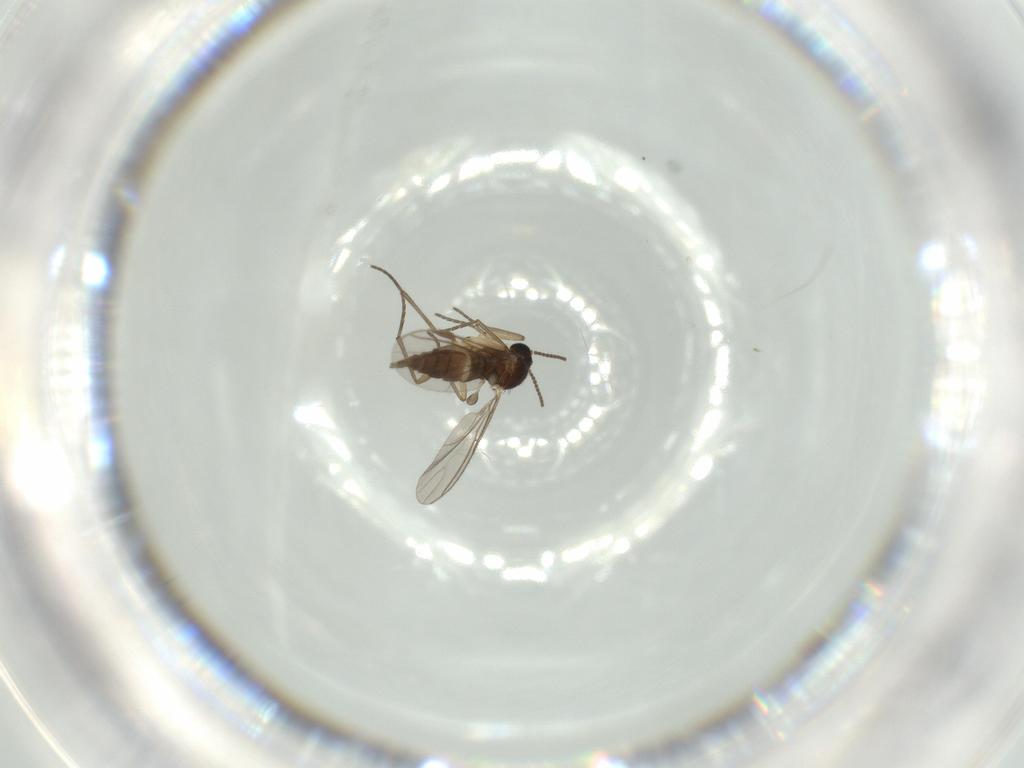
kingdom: Animalia
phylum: Arthropoda
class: Insecta
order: Diptera
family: Sciaridae
